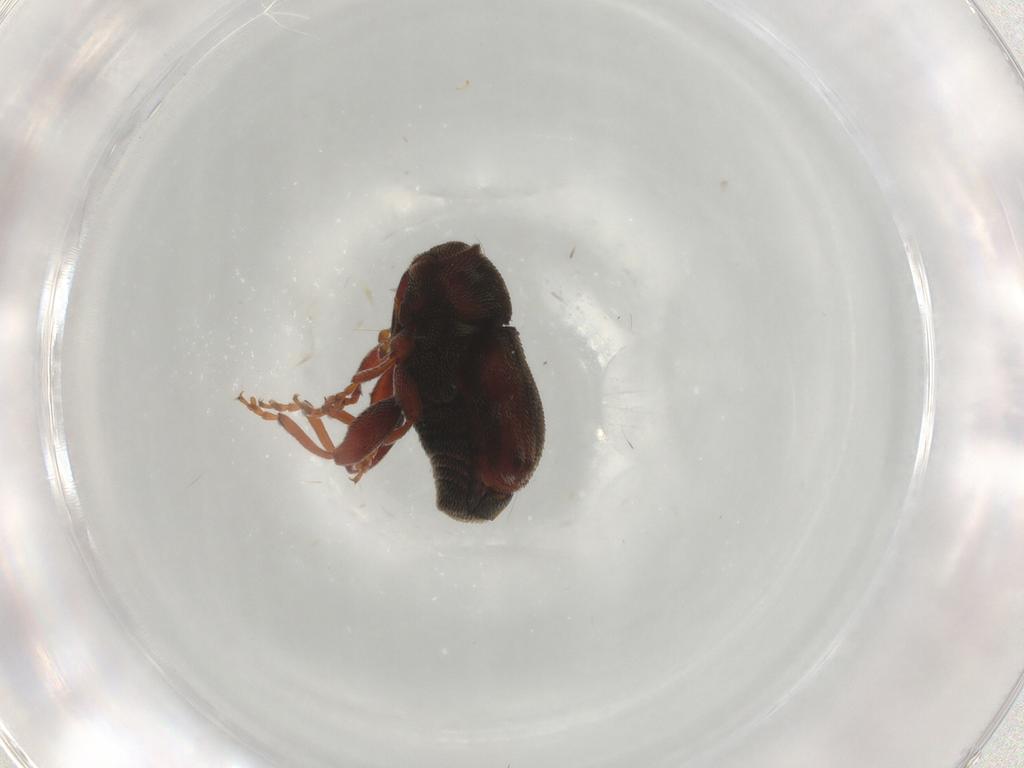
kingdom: Animalia
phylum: Arthropoda
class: Insecta
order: Coleoptera
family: Curculionidae
